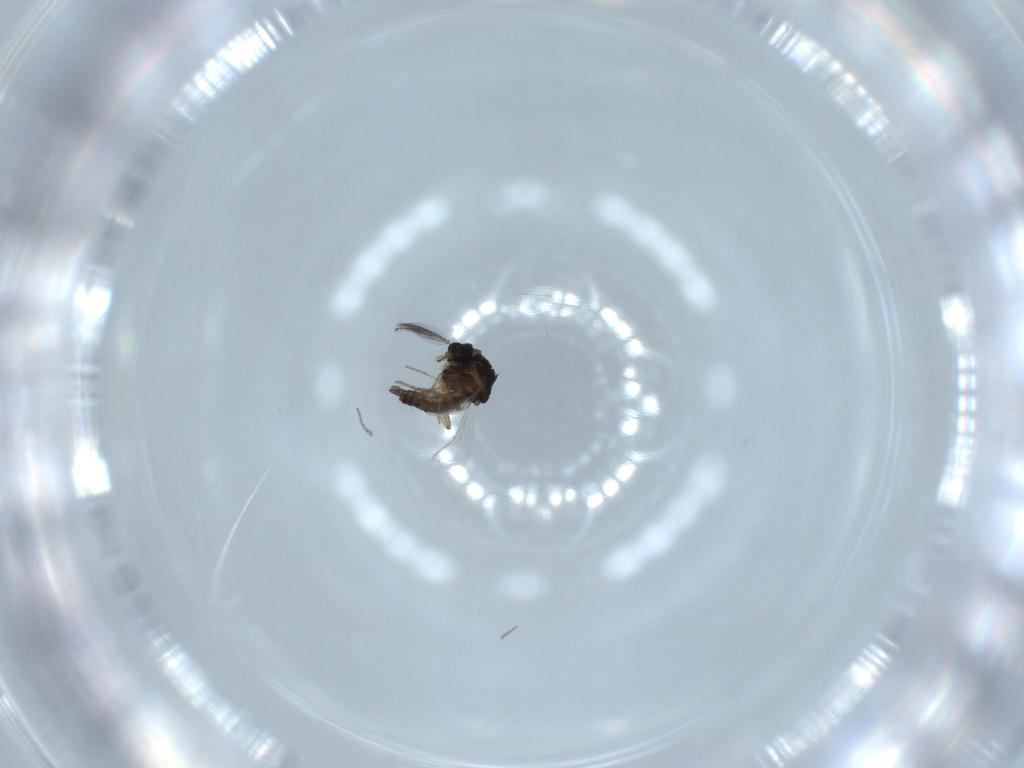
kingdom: Animalia
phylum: Arthropoda
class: Insecta
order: Diptera
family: Ceratopogonidae
